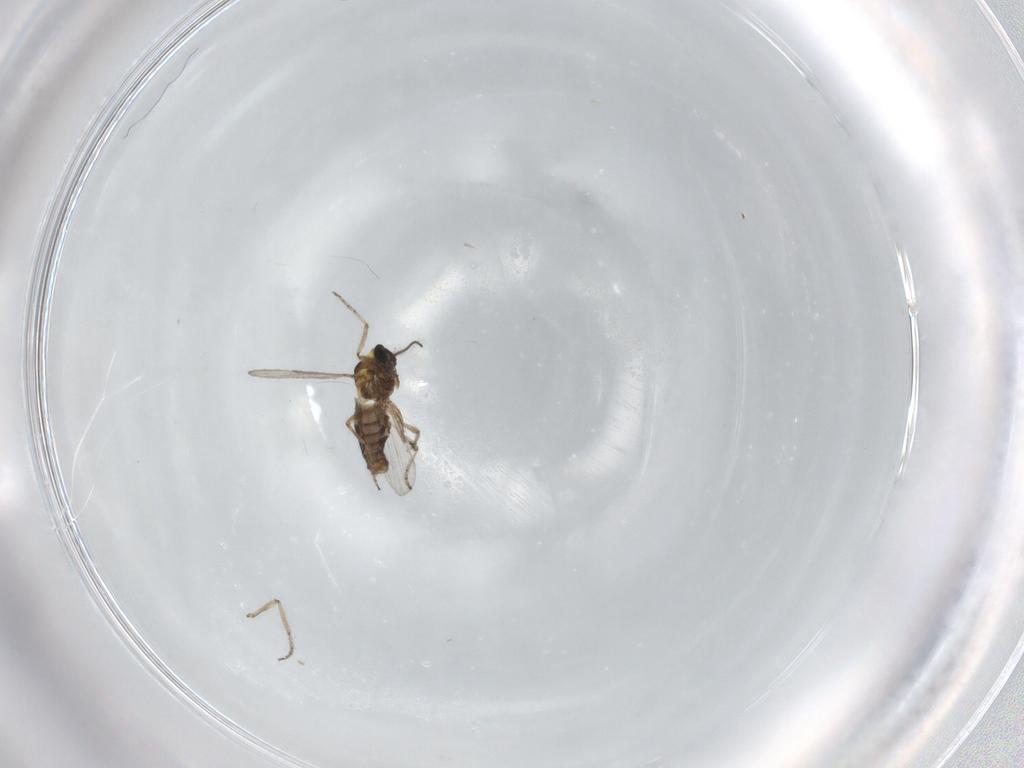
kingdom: Animalia
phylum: Arthropoda
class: Insecta
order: Diptera
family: Ceratopogonidae
